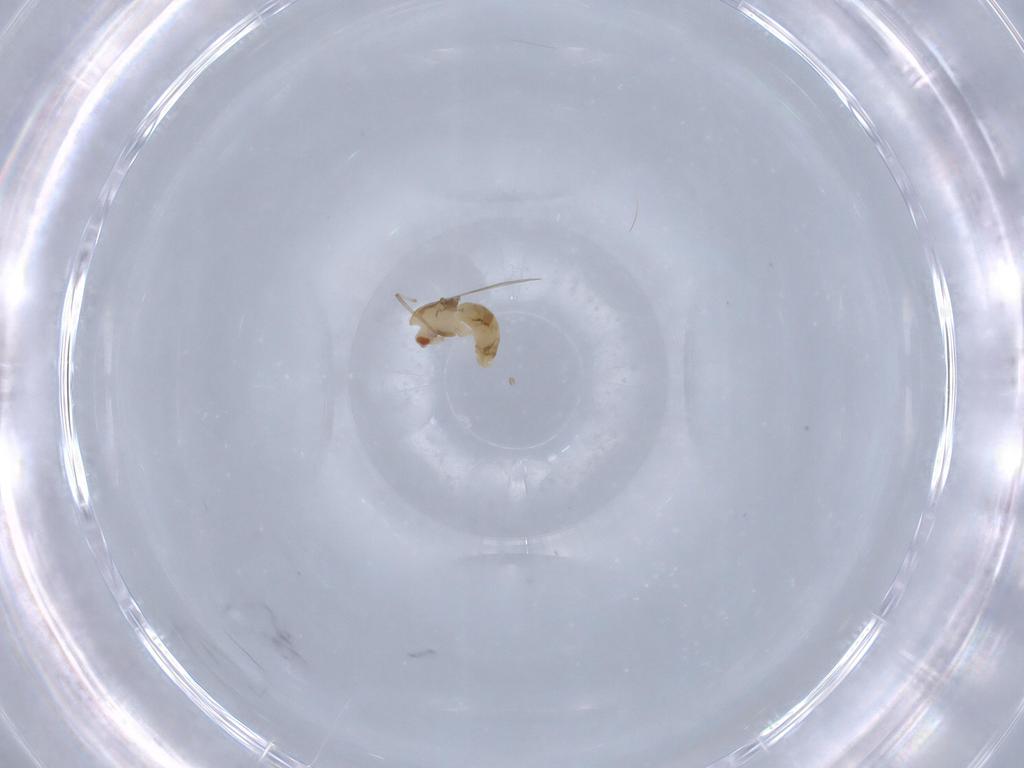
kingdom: Animalia
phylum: Arthropoda
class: Insecta
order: Diptera
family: Chironomidae
